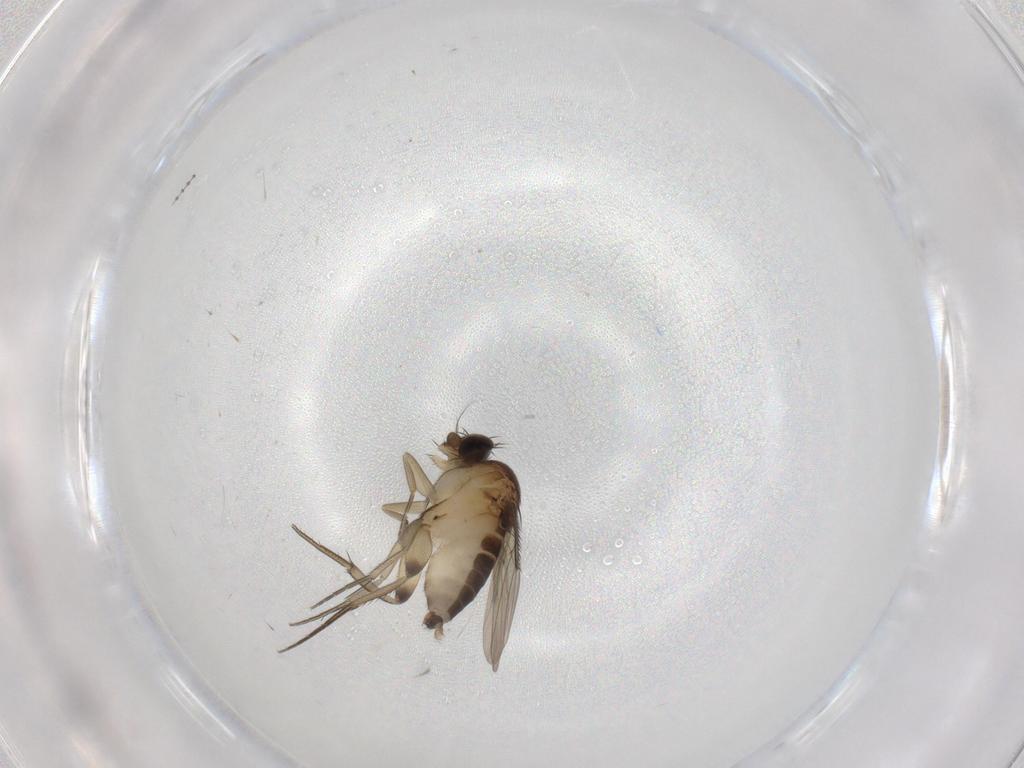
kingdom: Animalia
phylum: Arthropoda
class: Insecta
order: Diptera
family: Phoridae
